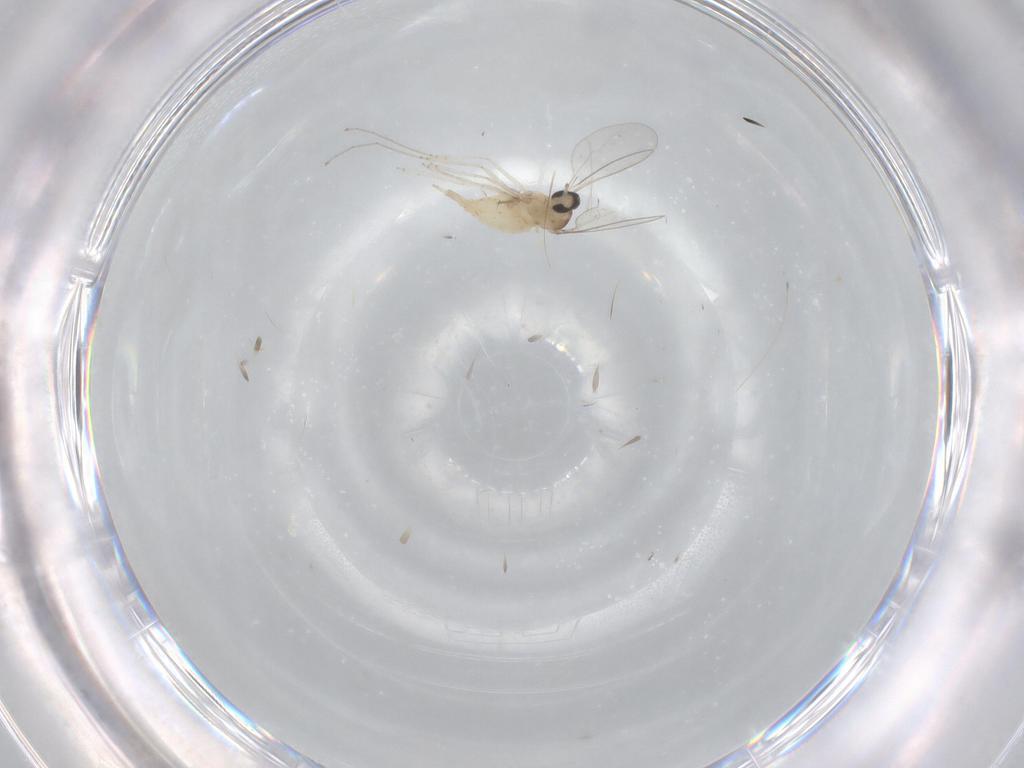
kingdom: Animalia
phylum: Arthropoda
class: Insecta
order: Diptera
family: Cecidomyiidae
